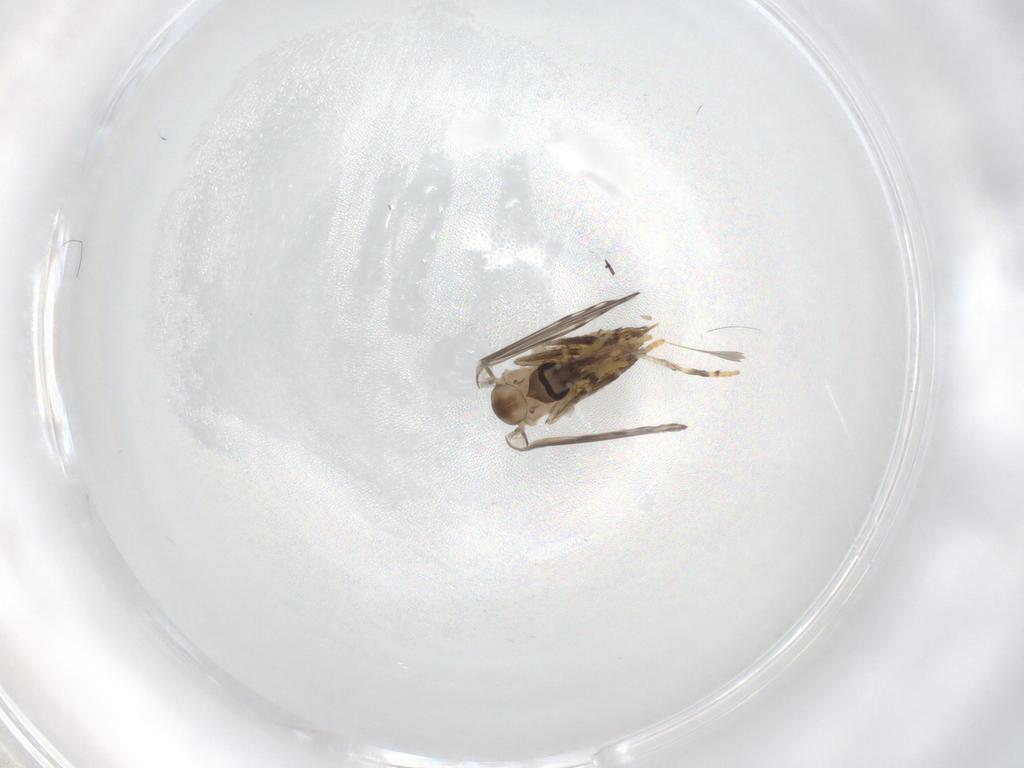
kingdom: Animalia
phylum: Arthropoda
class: Insecta
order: Diptera
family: Psychodidae
